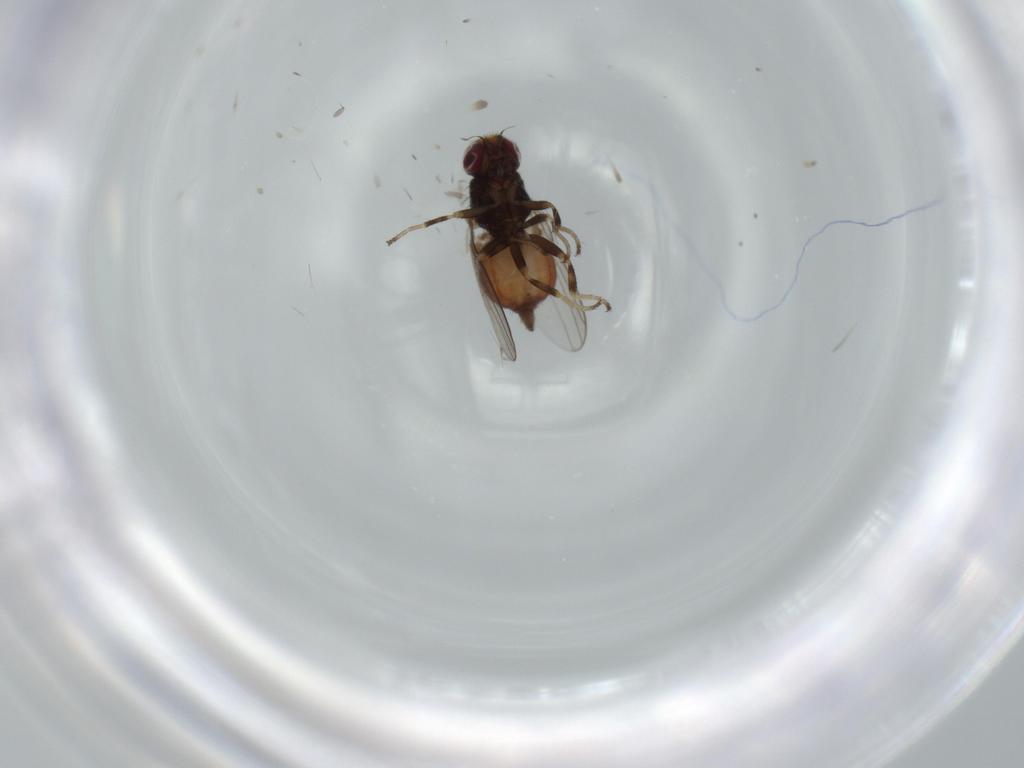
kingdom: Animalia
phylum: Arthropoda
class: Insecta
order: Diptera
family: Chloropidae
